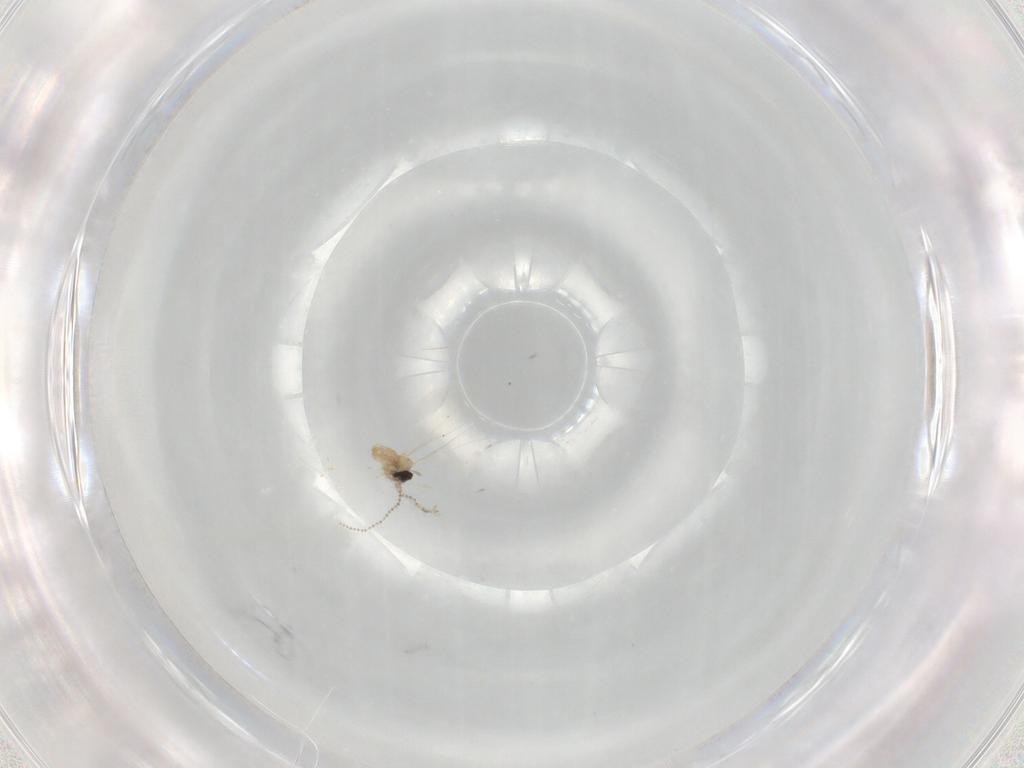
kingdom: Animalia
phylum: Arthropoda
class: Insecta
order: Diptera
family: Cecidomyiidae
